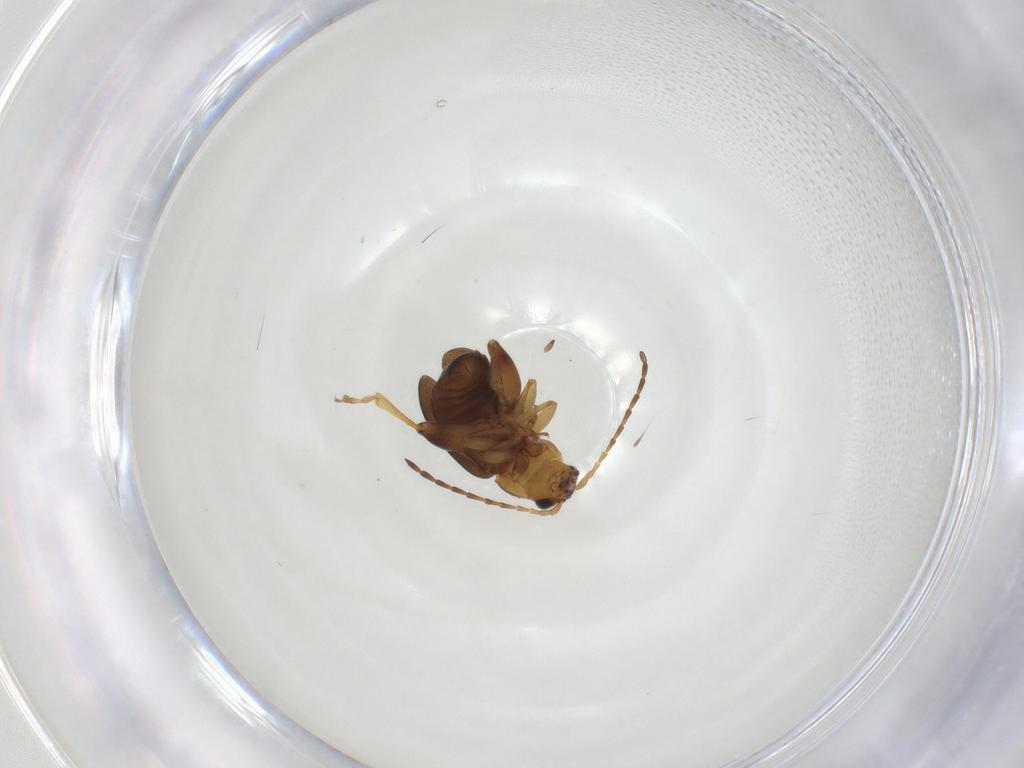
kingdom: Animalia
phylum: Arthropoda
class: Insecta
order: Coleoptera
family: Chrysomelidae
